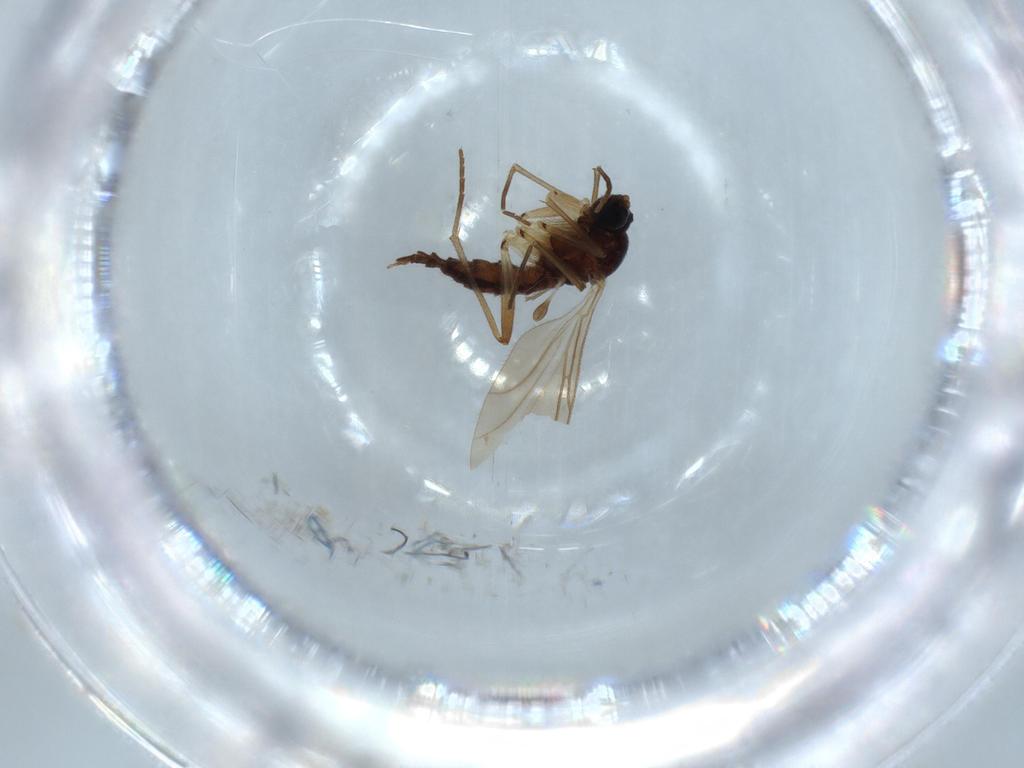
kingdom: Animalia
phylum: Arthropoda
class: Insecta
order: Diptera
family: Sciaridae
